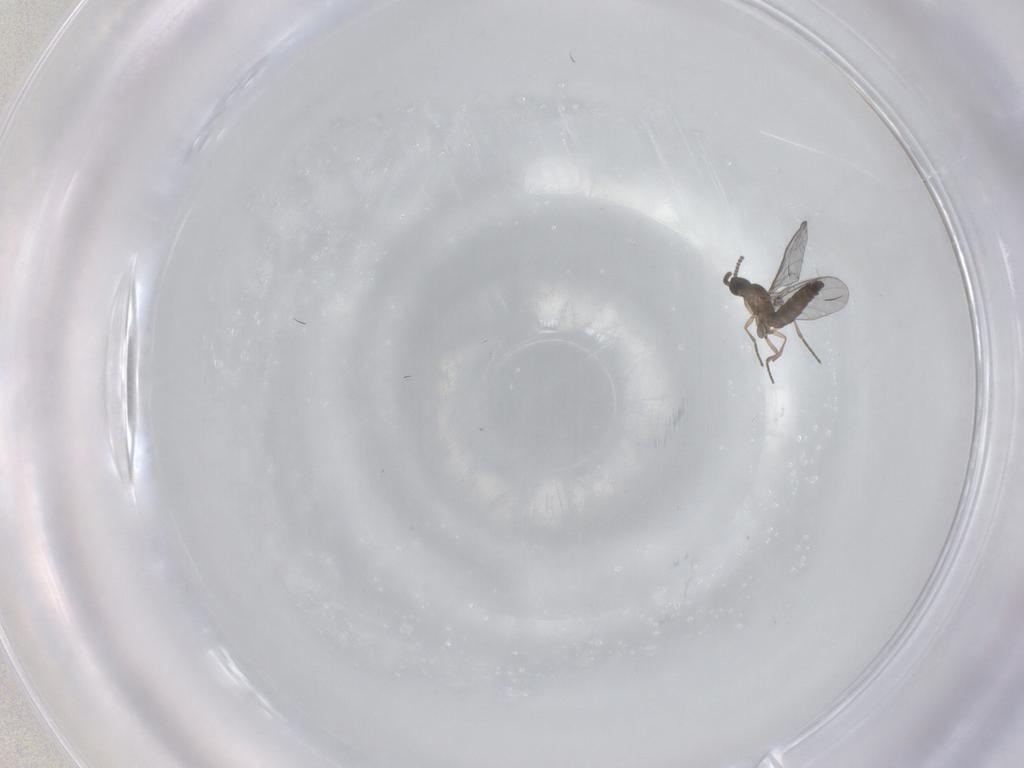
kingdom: Animalia
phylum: Arthropoda
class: Insecta
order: Diptera
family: Sciaridae
